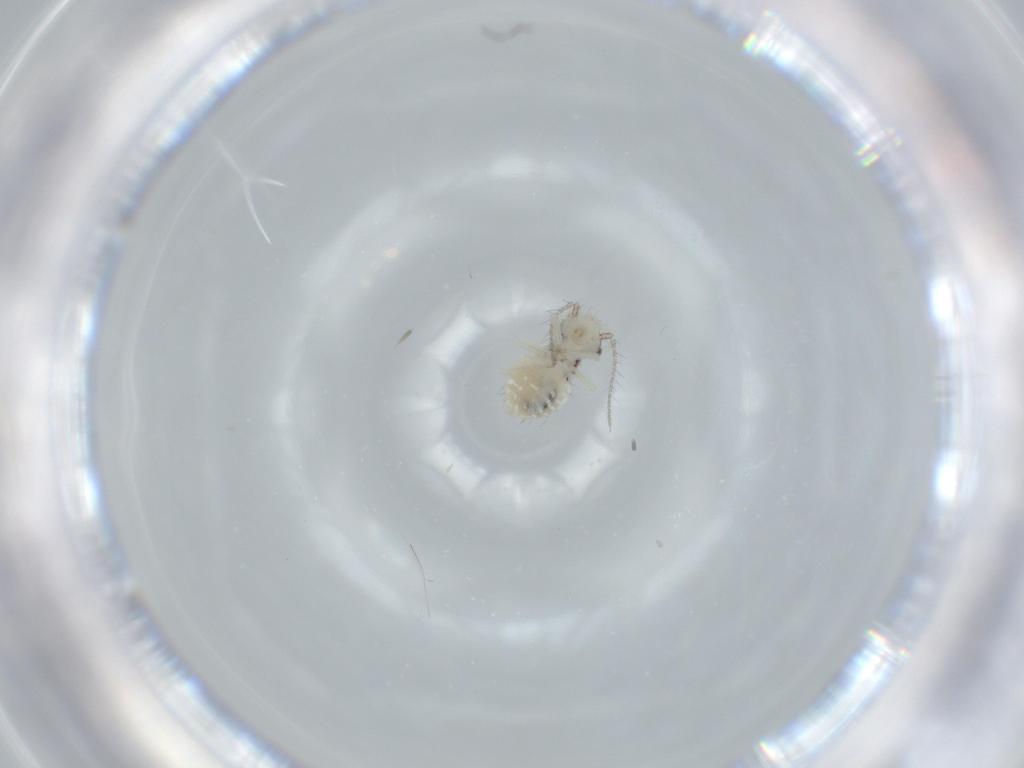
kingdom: Animalia
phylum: Arthropoda
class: Insecta
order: Psocodea
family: Pseudocaeciliidae
